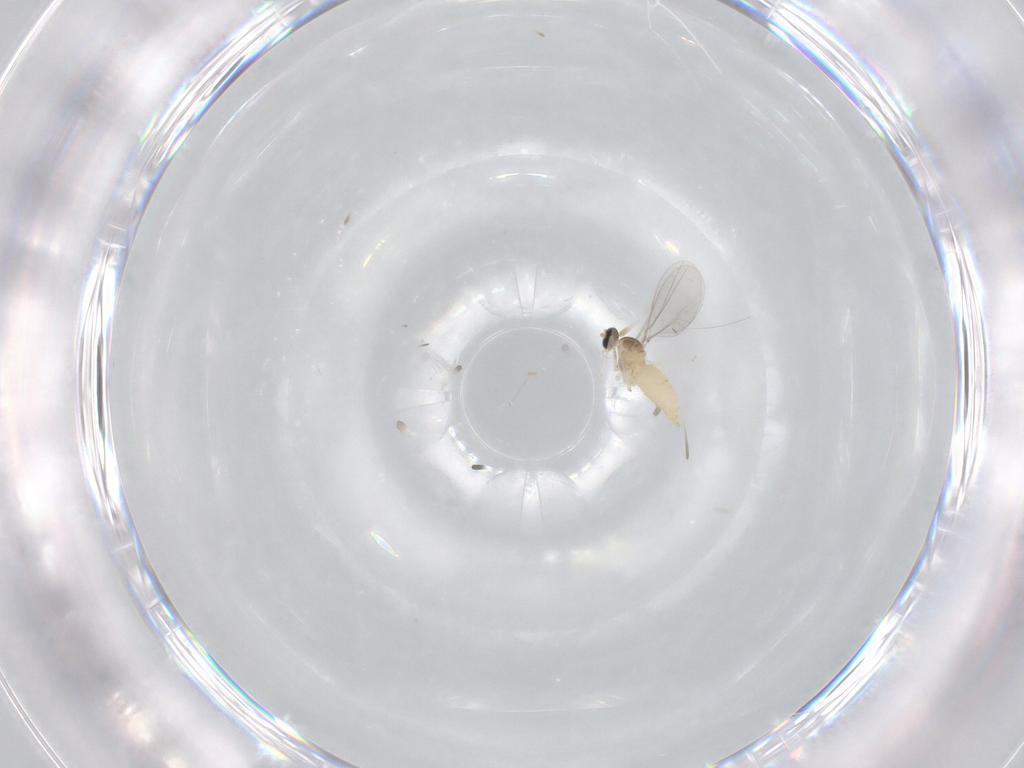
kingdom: Animalia
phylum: Arthropoda
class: Insecta
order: Diptera
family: Cecidomyiidae
